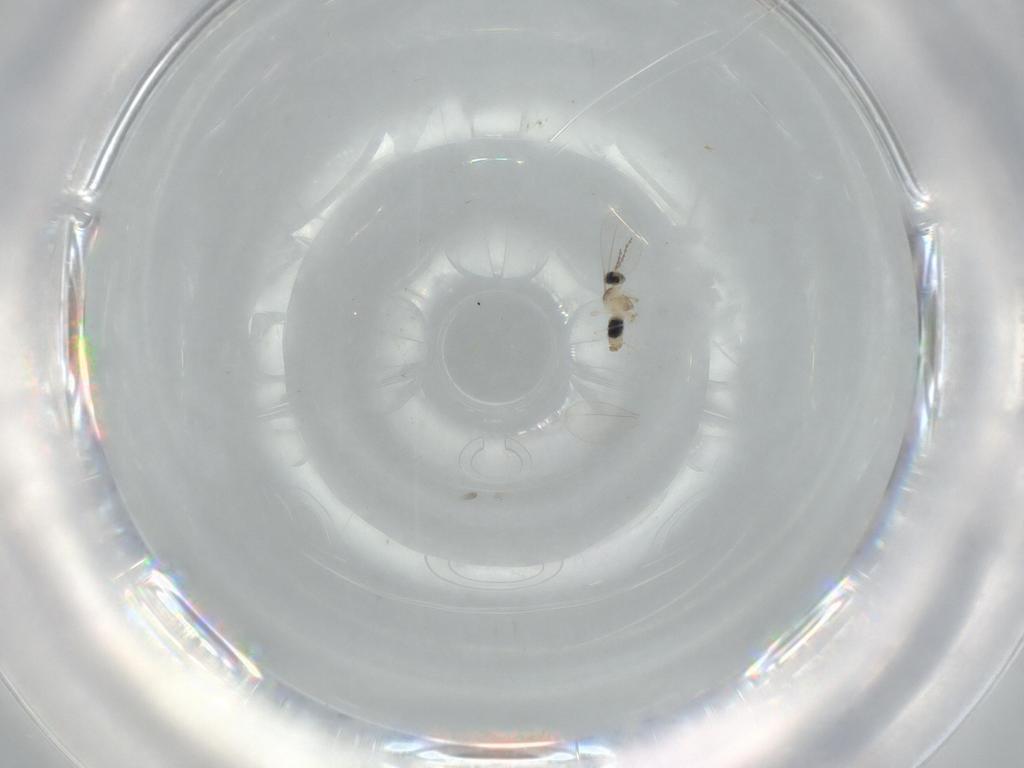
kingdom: Animalia
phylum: Arthropoda
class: Insecta
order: Diptera
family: Cecidomyiidae
